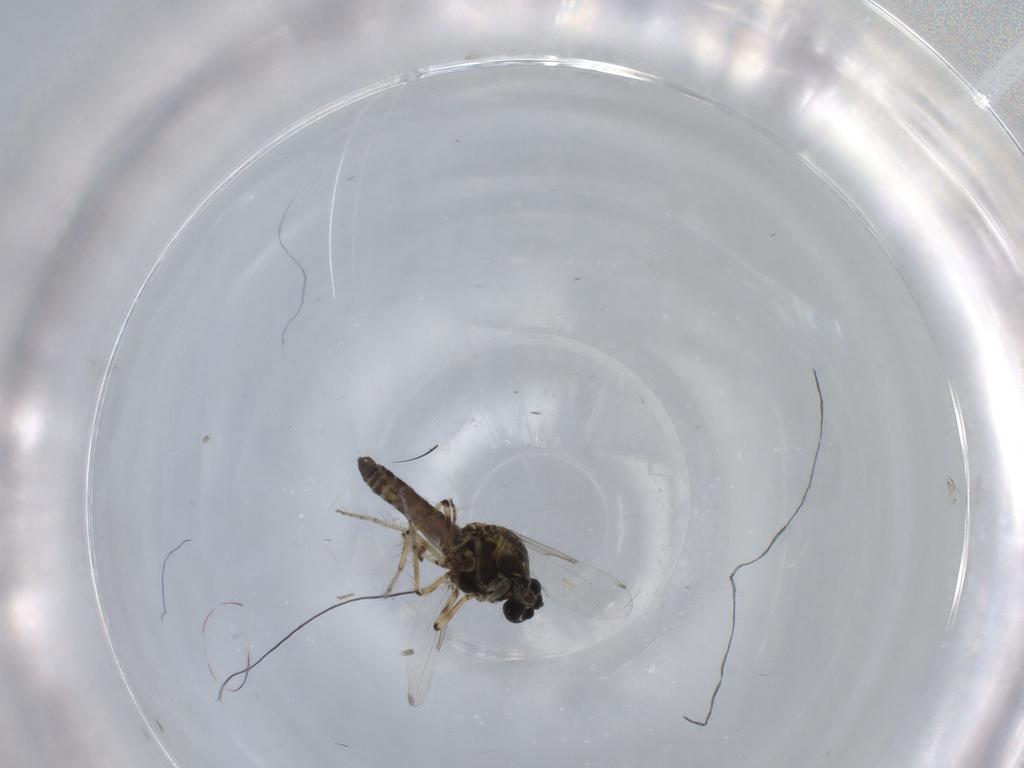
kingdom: Animalia
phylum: Arthropoda
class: Insecta
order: Diptera
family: Ceratopogonidae
